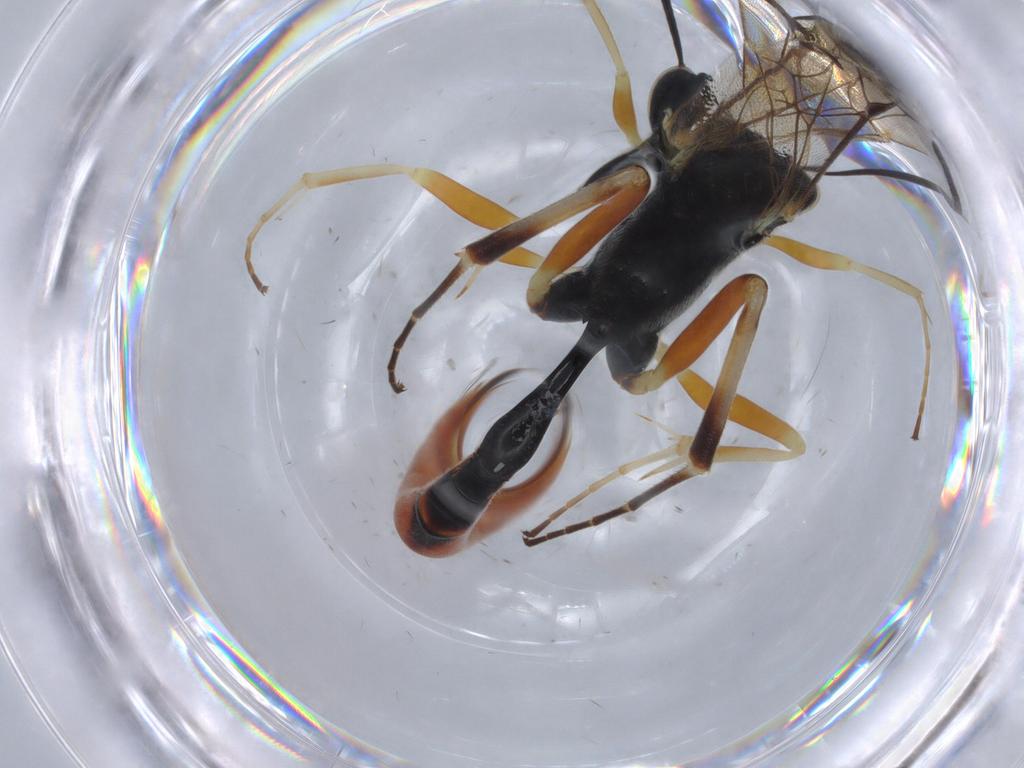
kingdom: Animalia
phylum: Arthropoda
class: Insecta
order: Hymenoptera
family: Ichneumonidae
